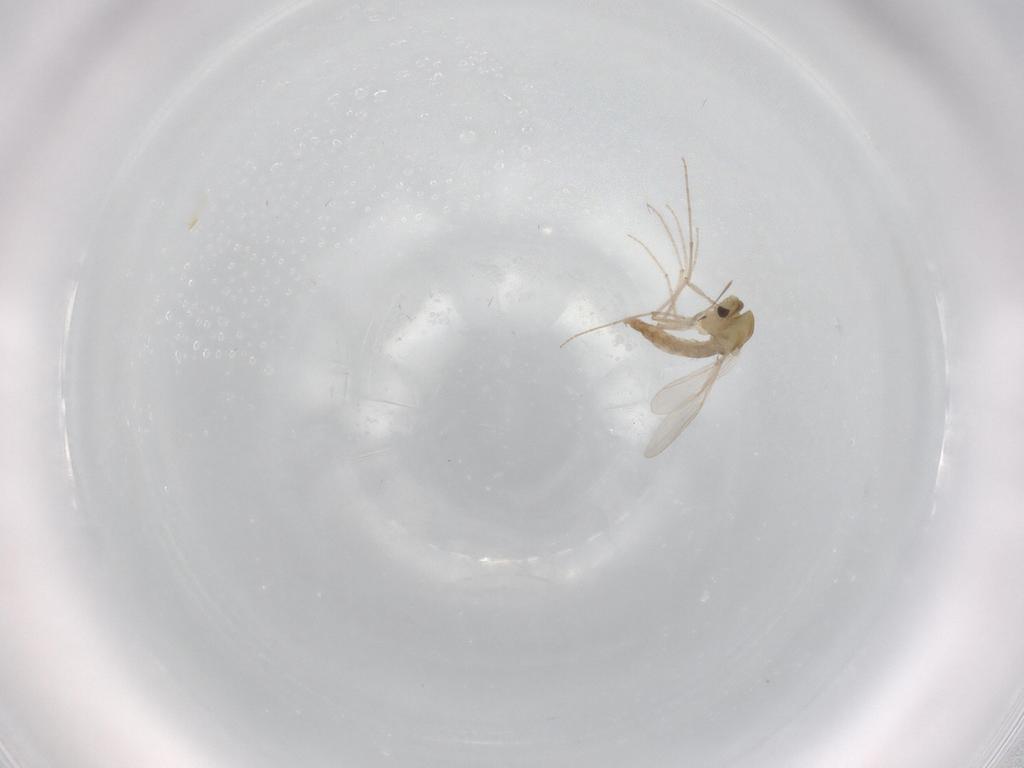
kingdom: Animalia
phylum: Arthropoda
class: Insecta
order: Diptera
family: Chironomidae
